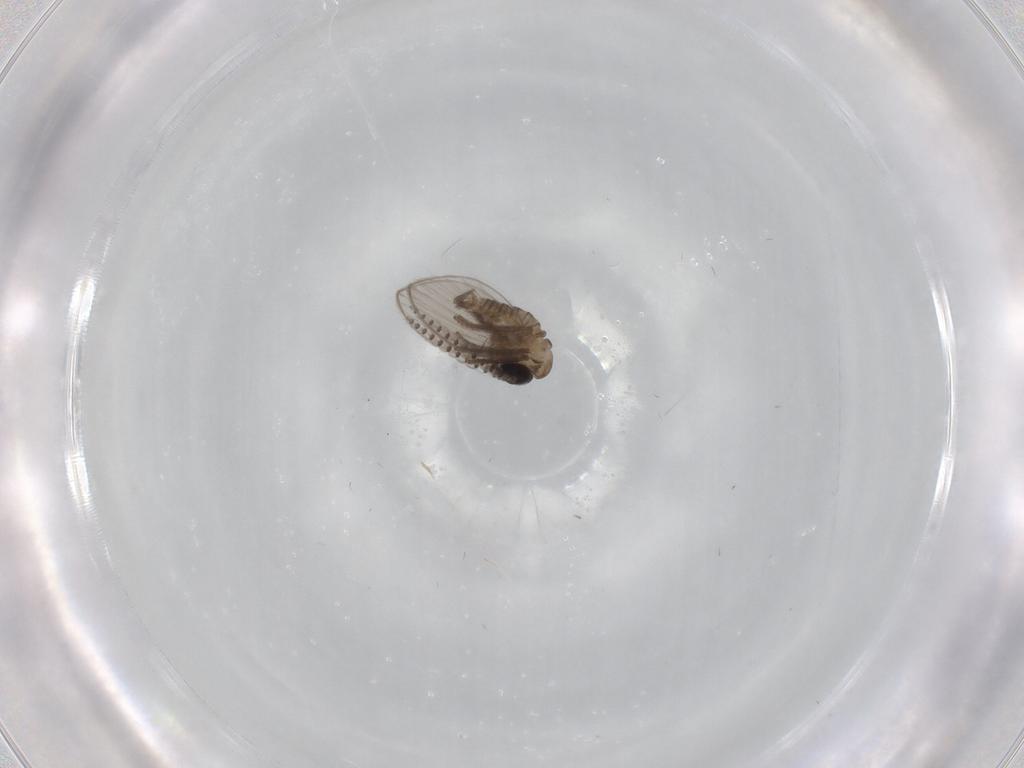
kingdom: Animalia
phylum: Arthropoda
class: Insecta
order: Diptera
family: Psychodidae
